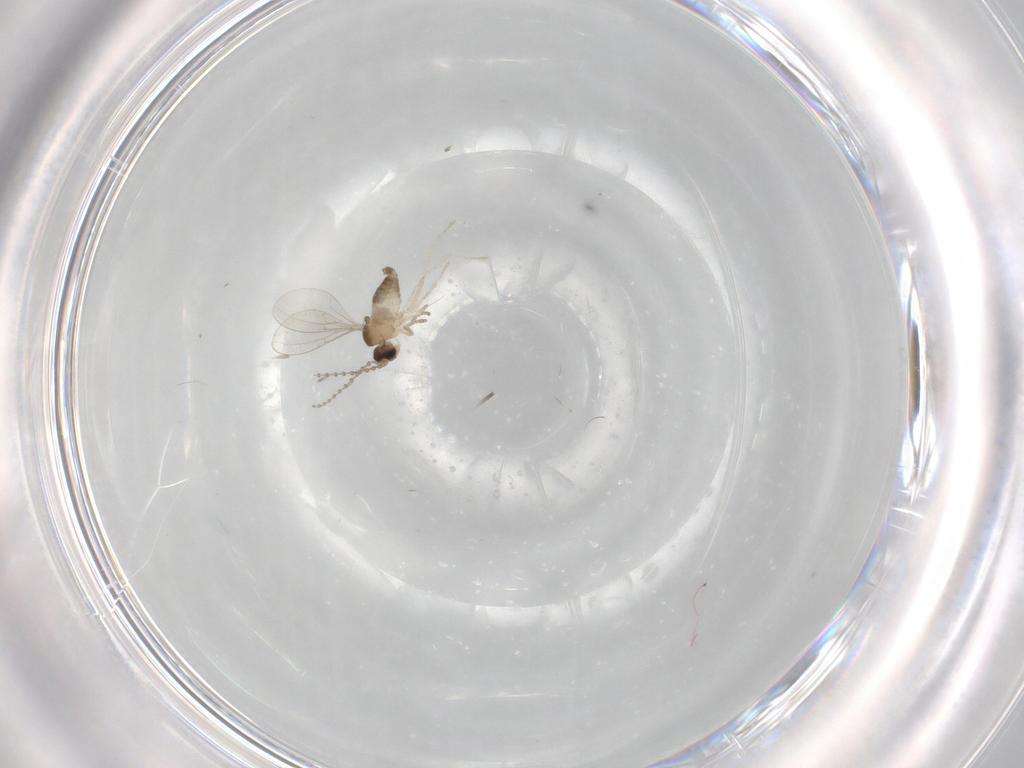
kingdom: Animalia
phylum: Arthropoda
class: Insecta
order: Diptera
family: Cecidomyiidae
